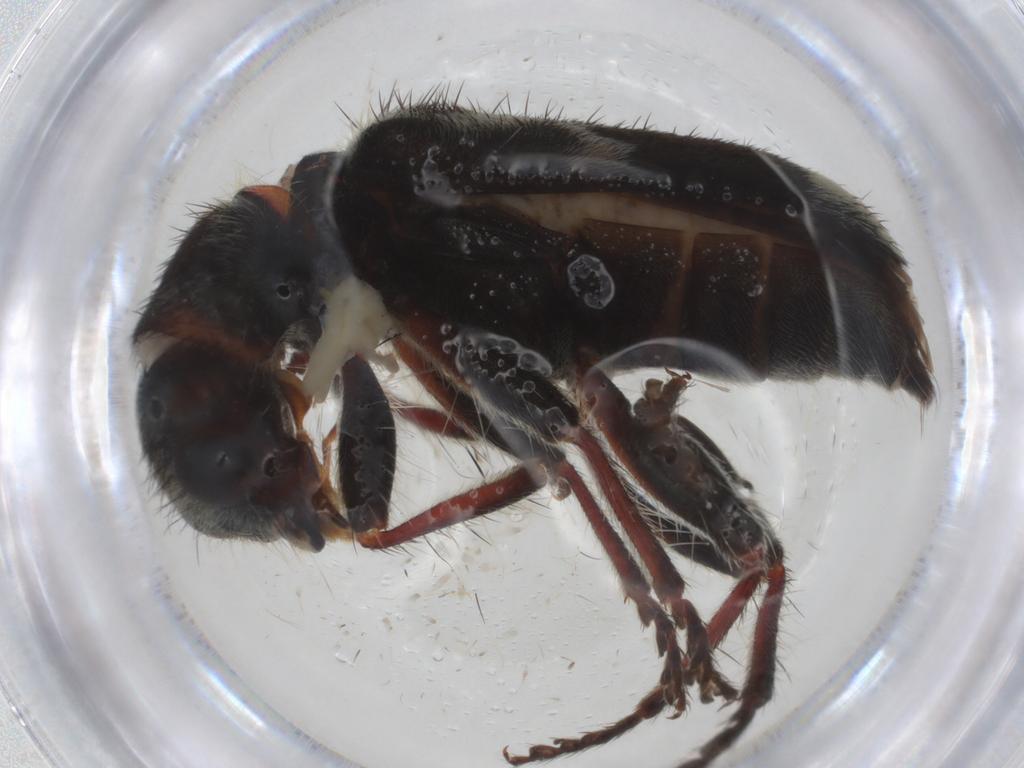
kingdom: Animalia
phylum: Arthropoda
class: Insecta
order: Coleoptera
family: Cleridae
